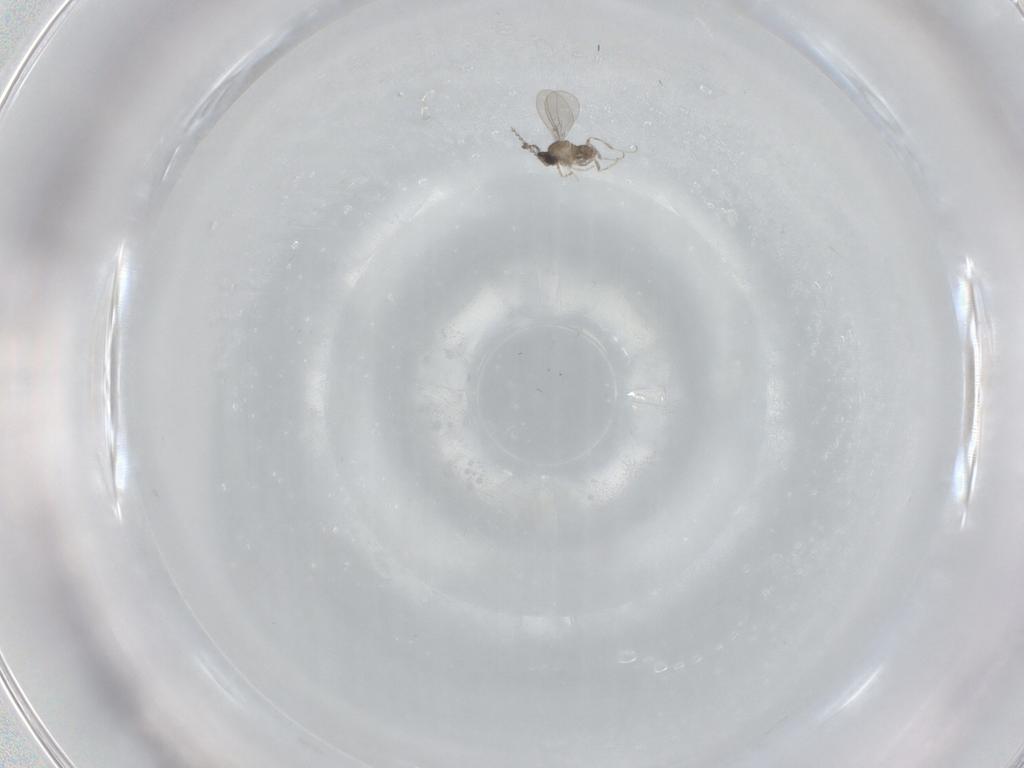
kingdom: Animalia
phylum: Arthropoda
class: Insecta
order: Diptera
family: Cecidomyiidae
